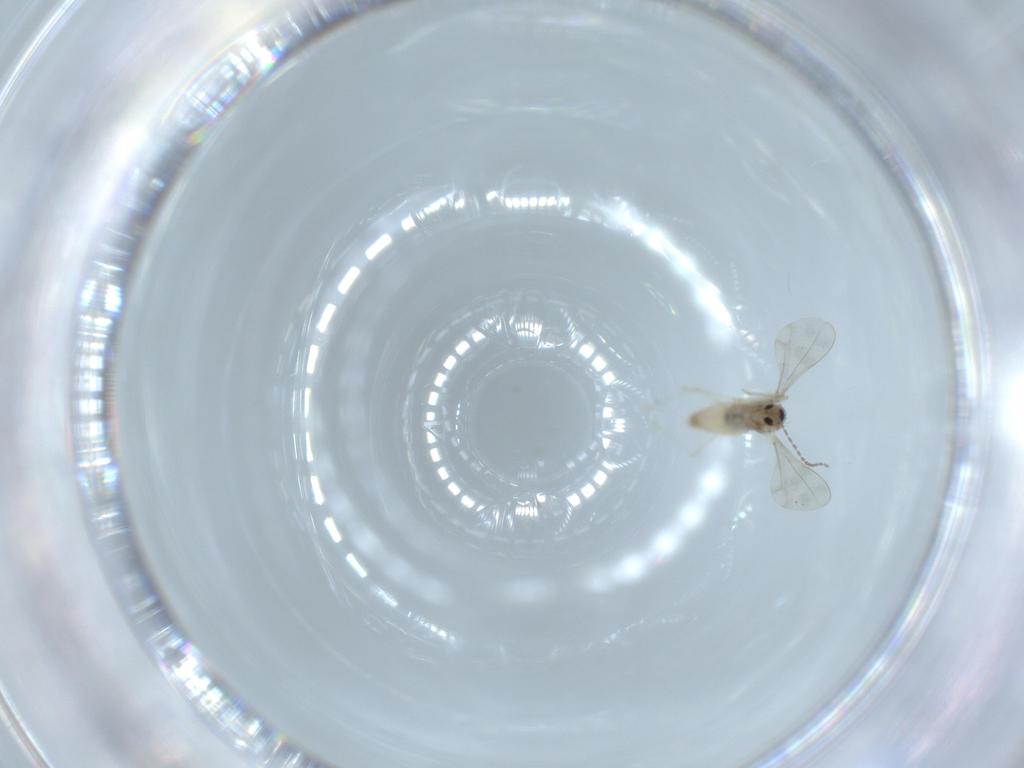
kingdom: Animalia
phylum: Arthropoda
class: Insecta
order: Diptera
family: Cecidomyiidae
